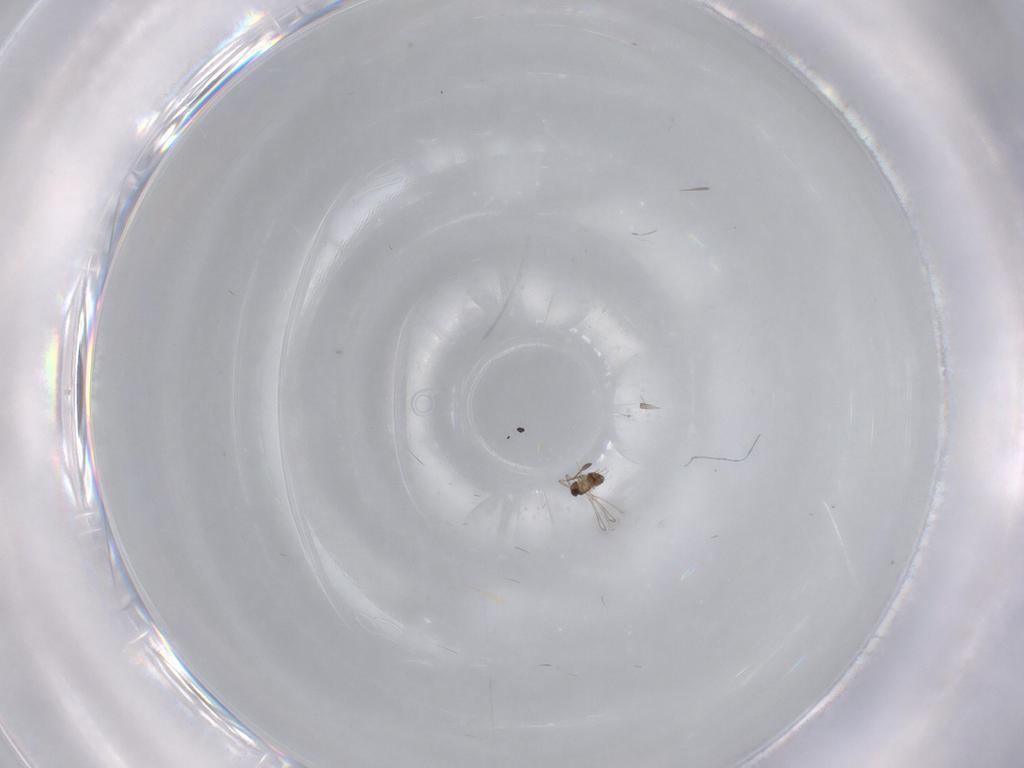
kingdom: Animalia
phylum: Arthropoda
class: Insecta
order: Hymenoptera
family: Mymaridae
